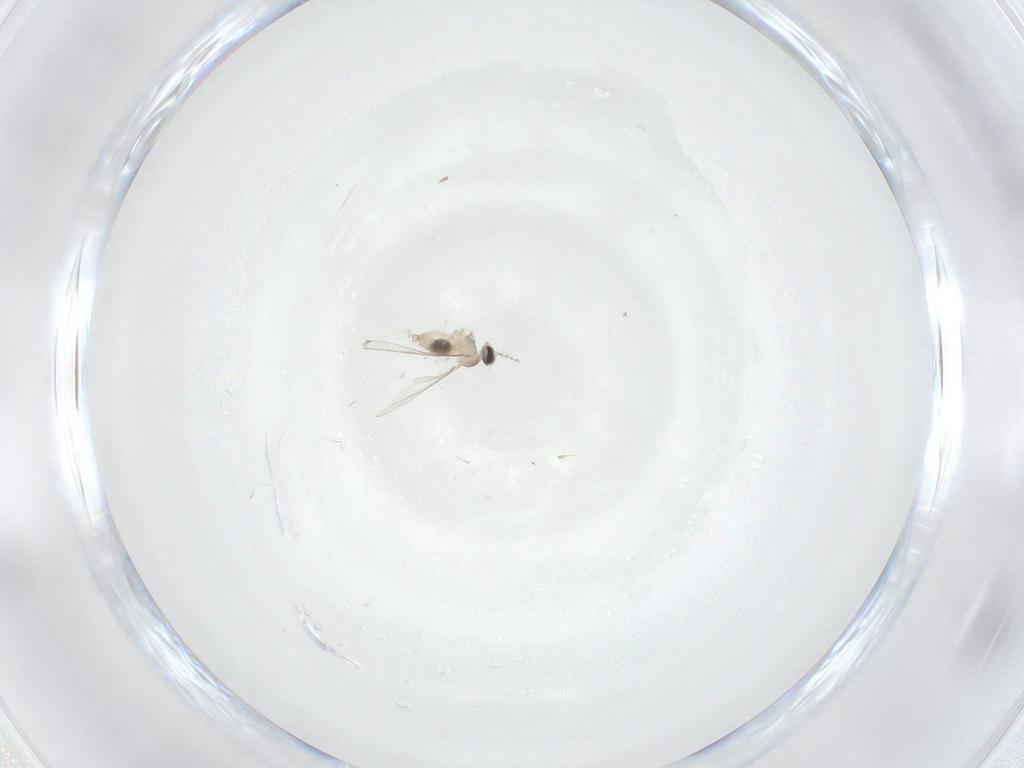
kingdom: Animalia
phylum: Arthropoda
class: Insecta
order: Diptera
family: Cecidomyiidae
